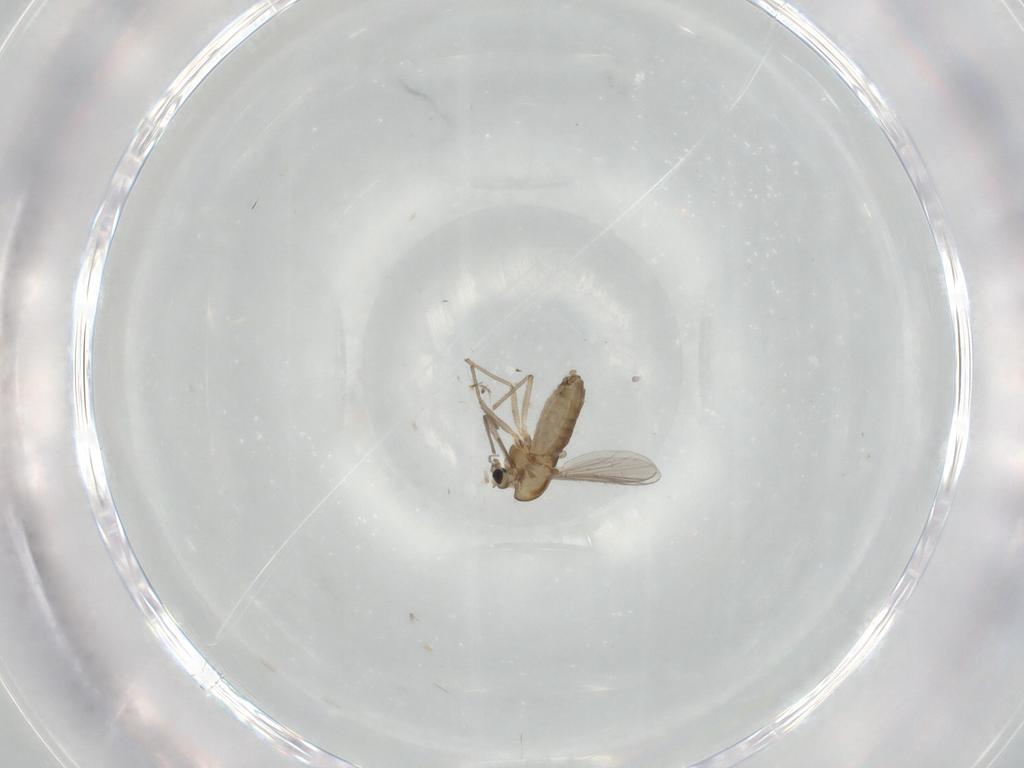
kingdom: Animalia
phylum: Arthropoda
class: Insecta
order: Diptera
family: Chironomidae
